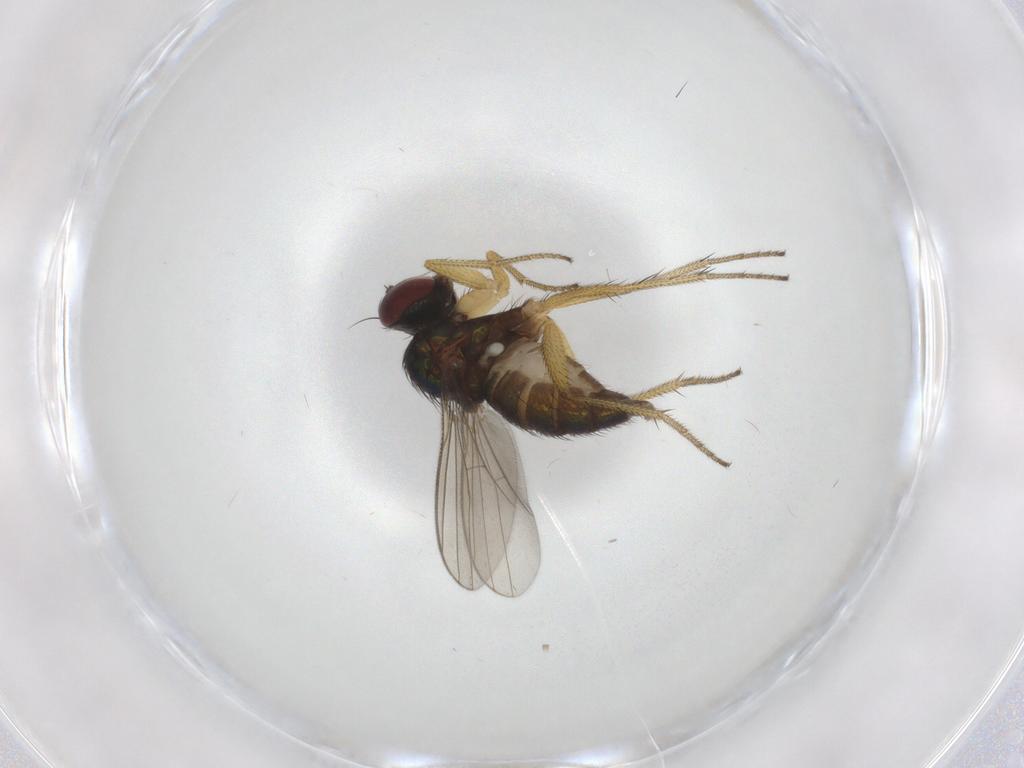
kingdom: Animalia
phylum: Arthropoda
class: Insecta
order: Diptera
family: Dolichopodidae
